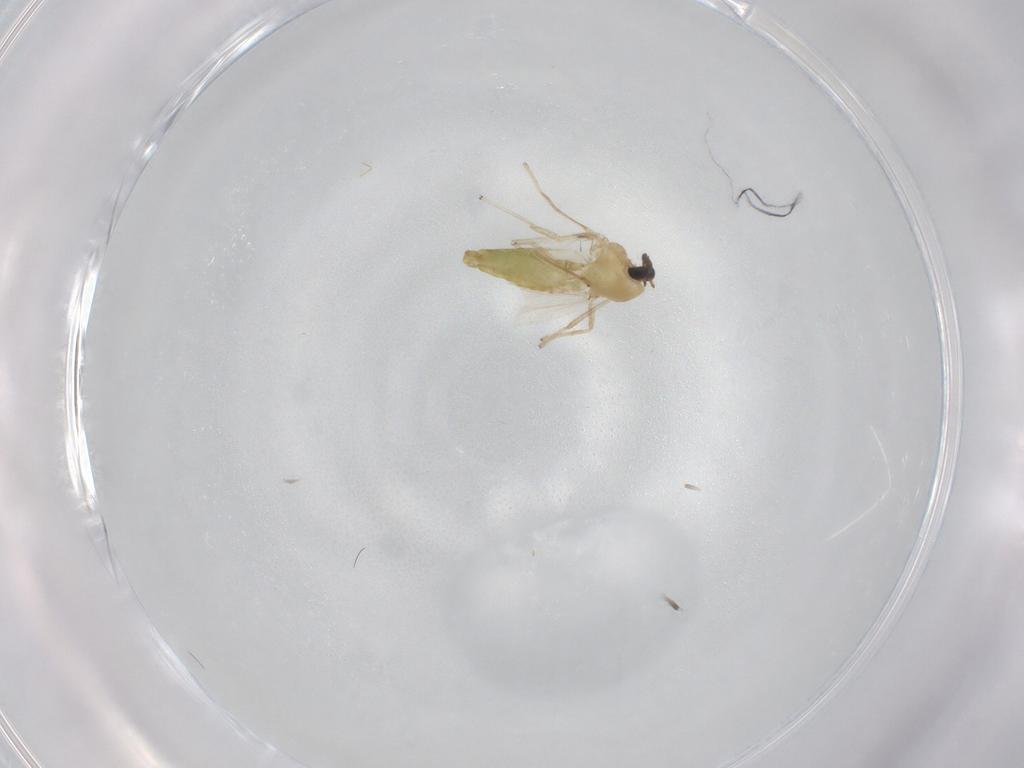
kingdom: Animalia
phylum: Arthropoda
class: Insecta
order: Diptera
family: Chironomidae
